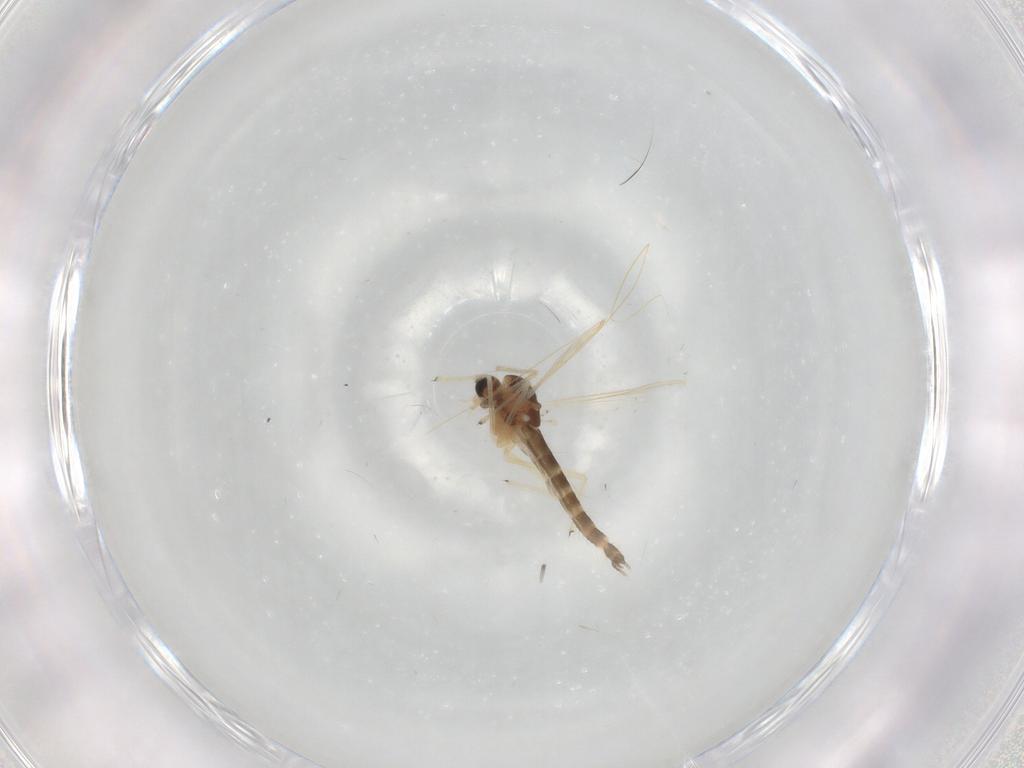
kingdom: Animalia
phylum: Arthropoda
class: Insecta
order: Diptera
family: Chironomidae
